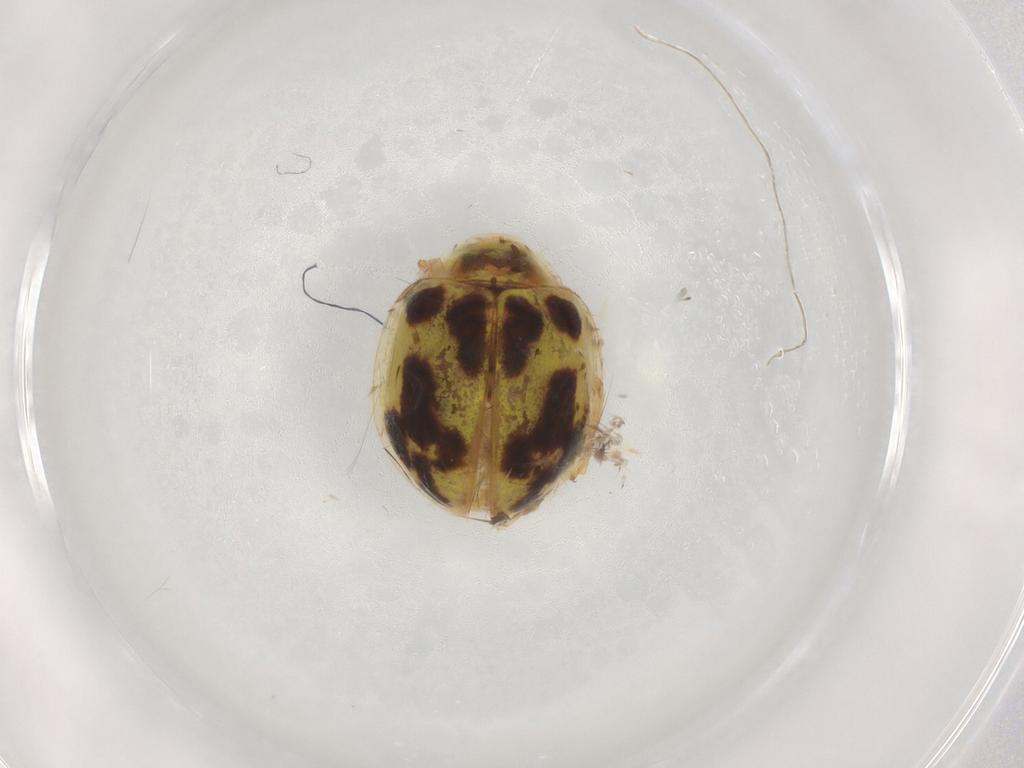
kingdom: Animalia
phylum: Arthropoda
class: Insecta
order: Coleoptera
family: Coccinellidae
